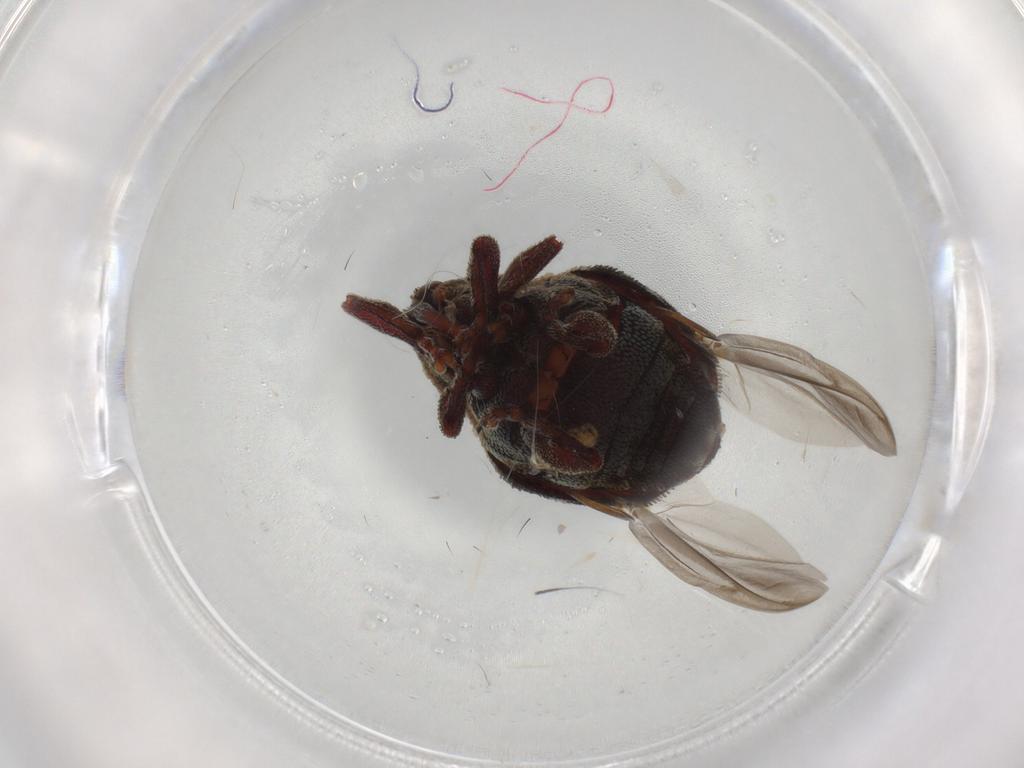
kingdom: Animalia
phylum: Arthropoda
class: Insecta
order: Coleoptera
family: Curculionidae
